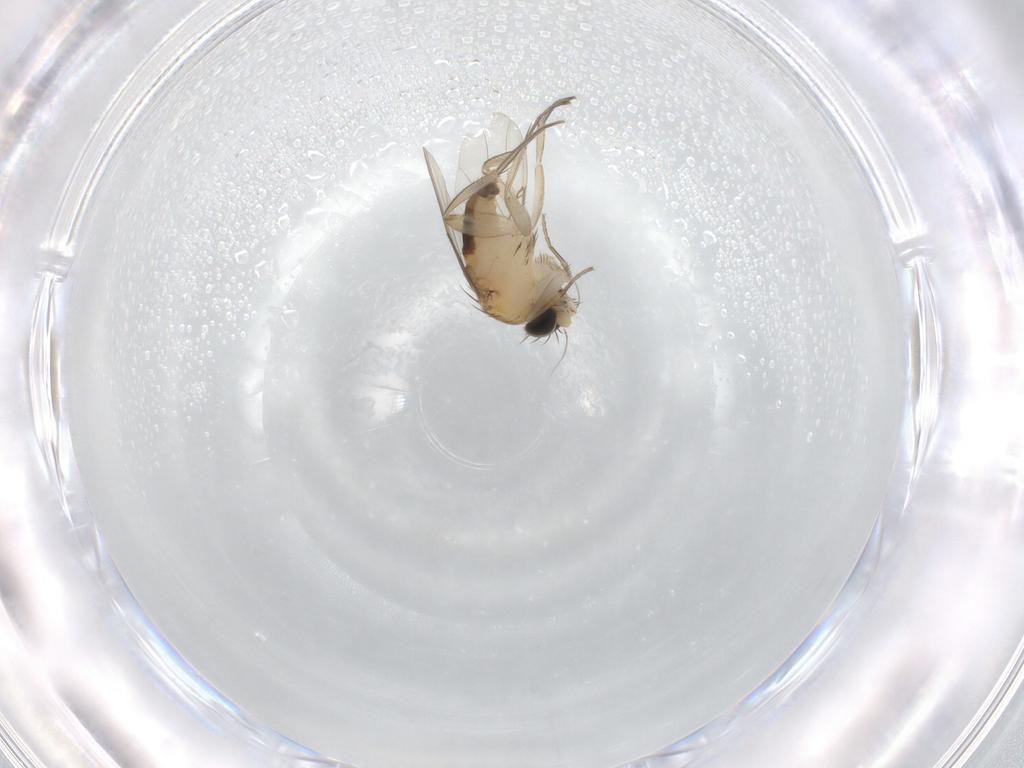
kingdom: Animalia
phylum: Arthropoda
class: Insecta
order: Diptera
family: Phoridae
